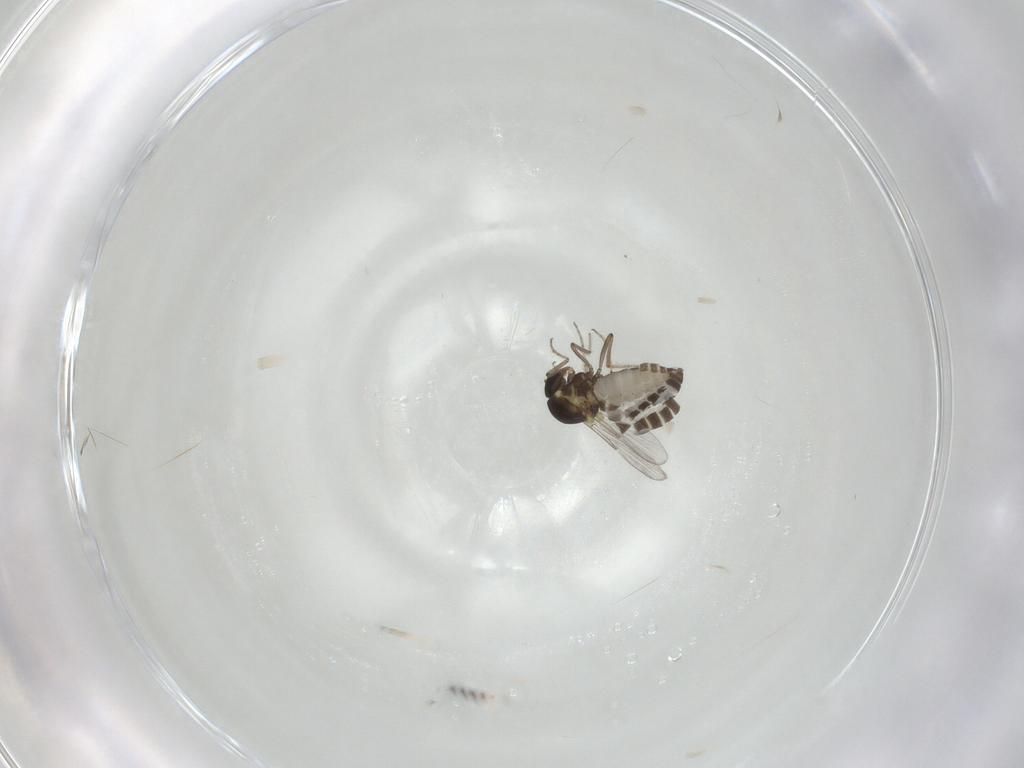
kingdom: Animalia
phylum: Arthropoda
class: Insecta
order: Diptera
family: Ceratopogonidae
